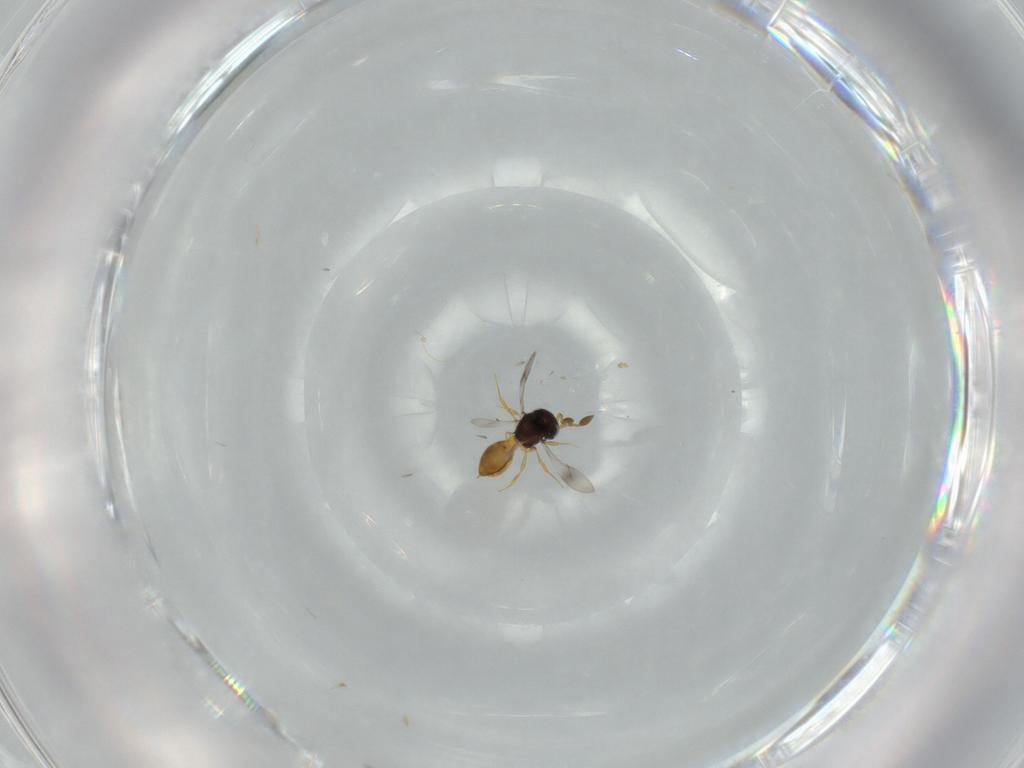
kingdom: Animalia
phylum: Arthropoda
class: Insecta
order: Hymenoptera
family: Scelionidae
